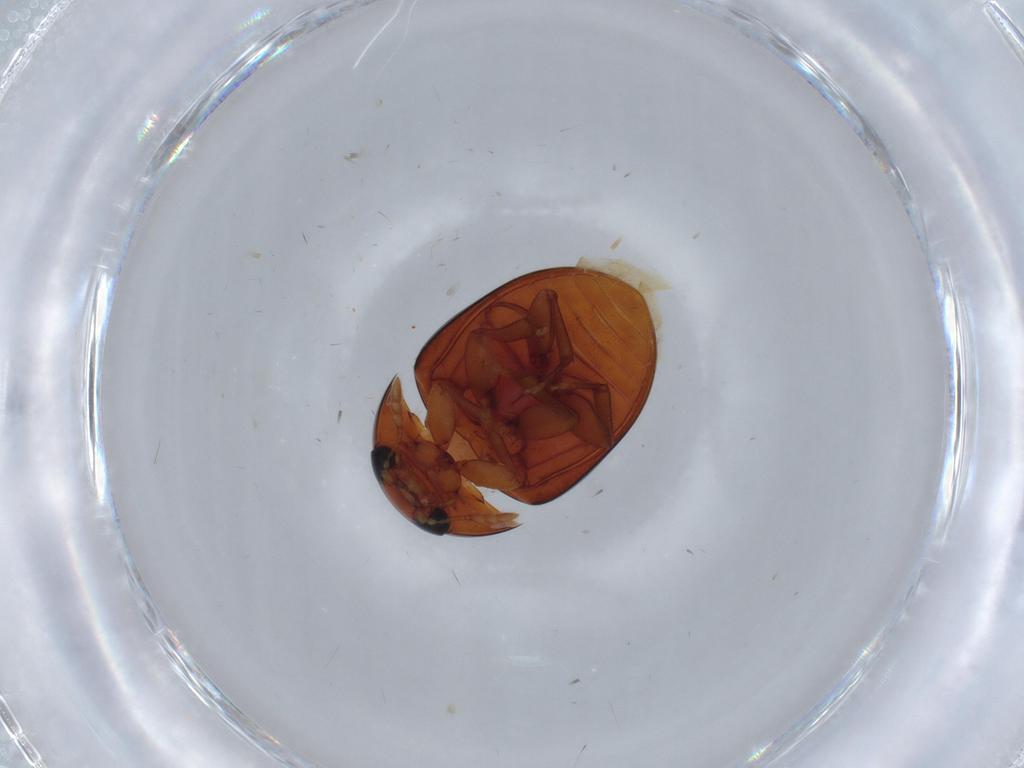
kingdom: Animalia
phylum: Arthropoda
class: Insecta
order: Coleoptera
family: Phalacridae
